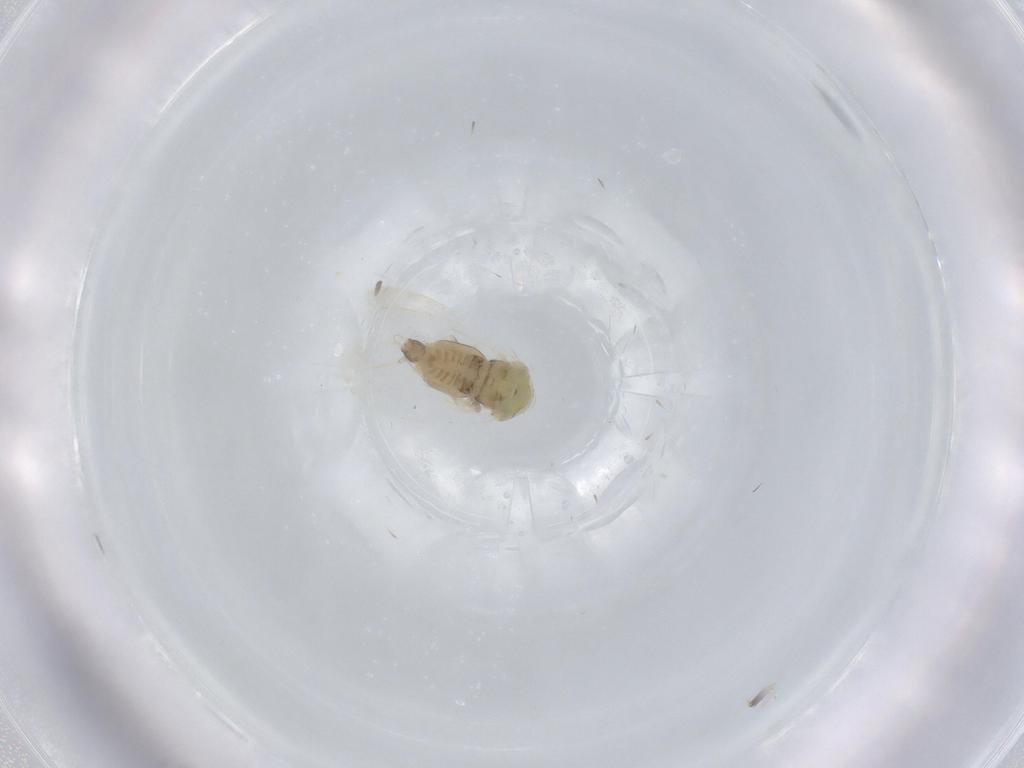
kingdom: Animalia
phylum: Arthropoda
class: Insecta
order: Hemiptera
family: Aleyrodidae
